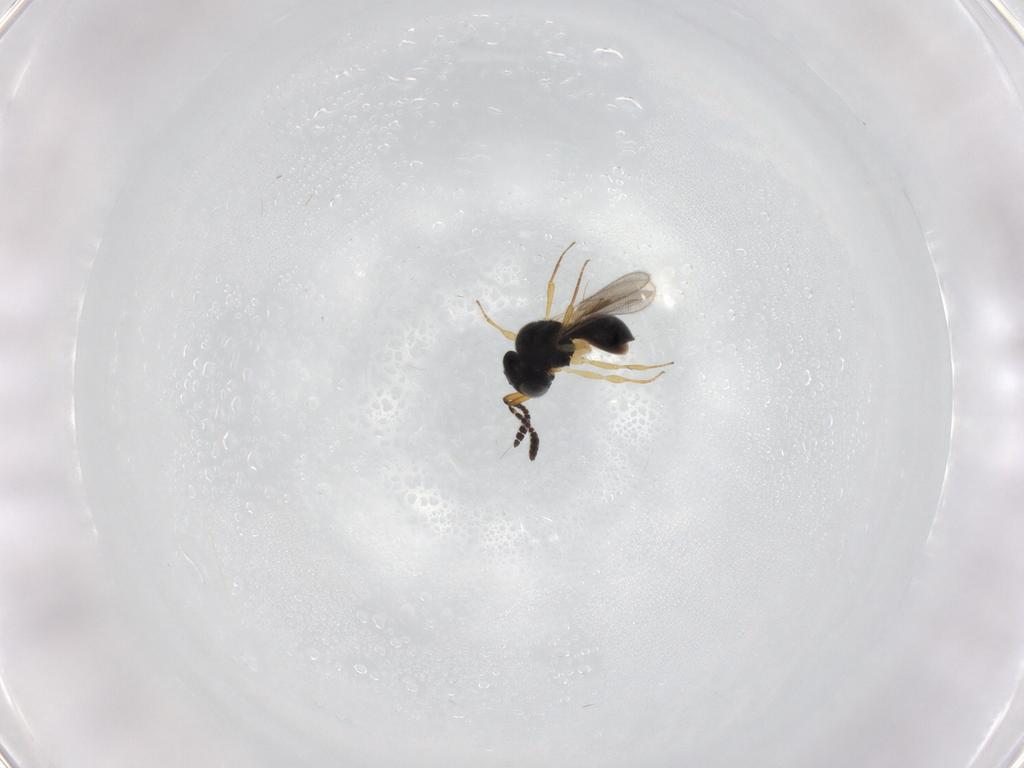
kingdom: Animalia
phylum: Arthropoda
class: Insecta
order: Hymenoptera
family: Scelionidae
